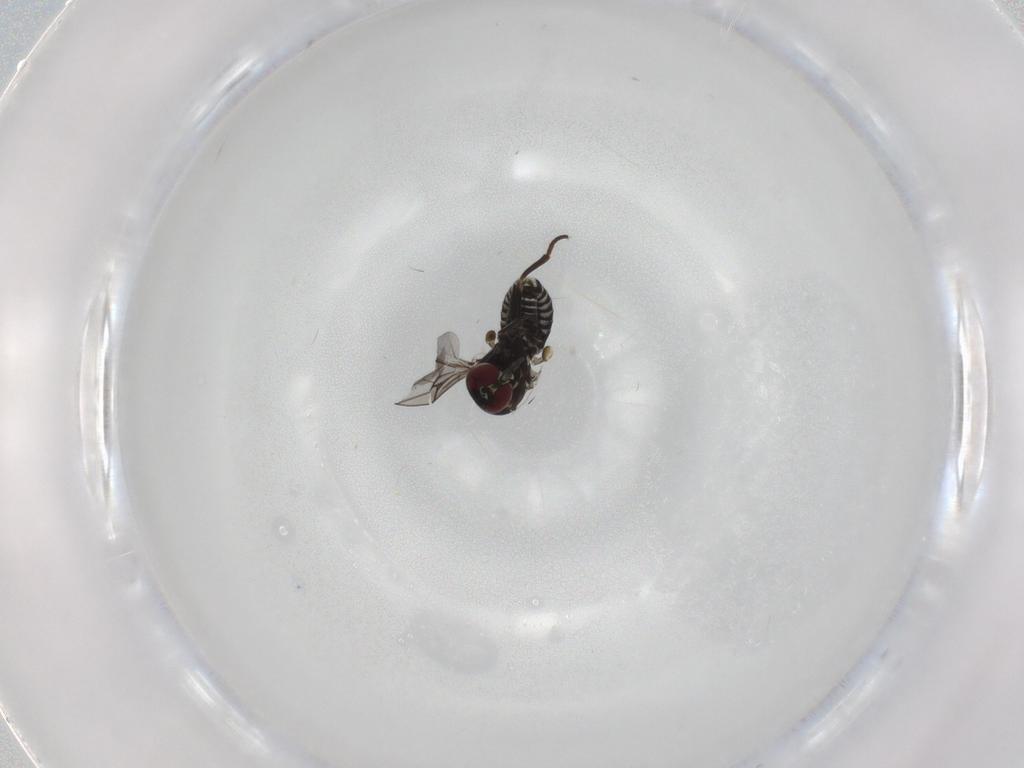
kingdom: Animalia
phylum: Arthropoda
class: Insecta
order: Diptera
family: Mythicomyiidae
